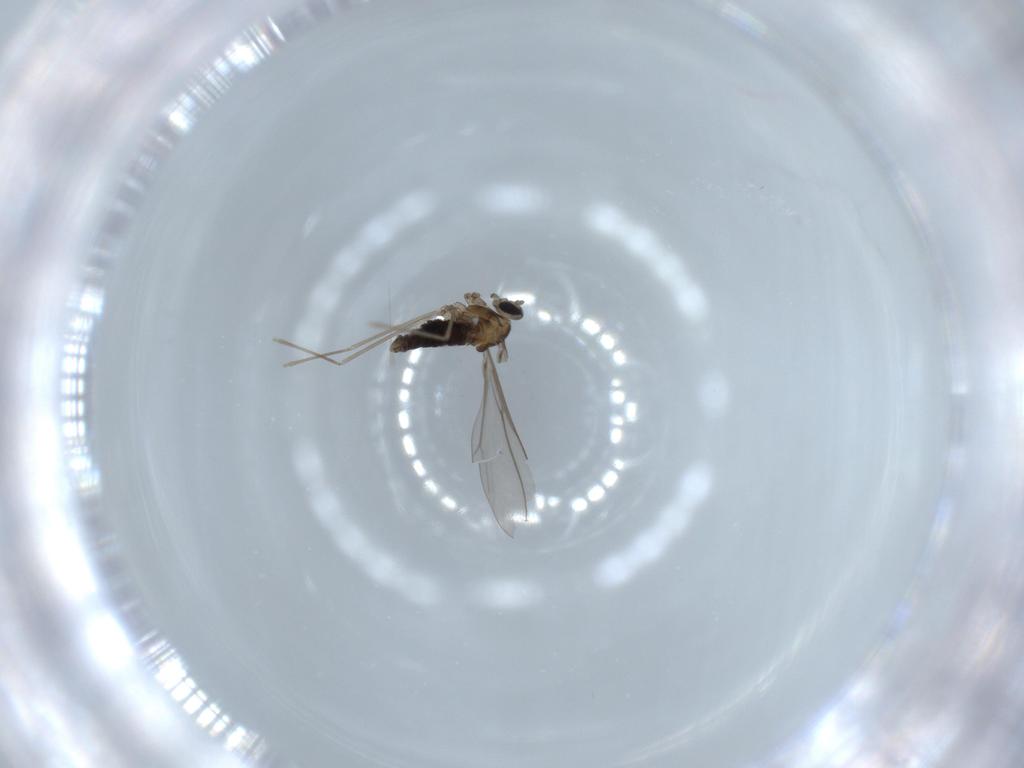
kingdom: Animalia
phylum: Arthropoda
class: Insecta
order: Diptera
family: Cecidomyiidae
